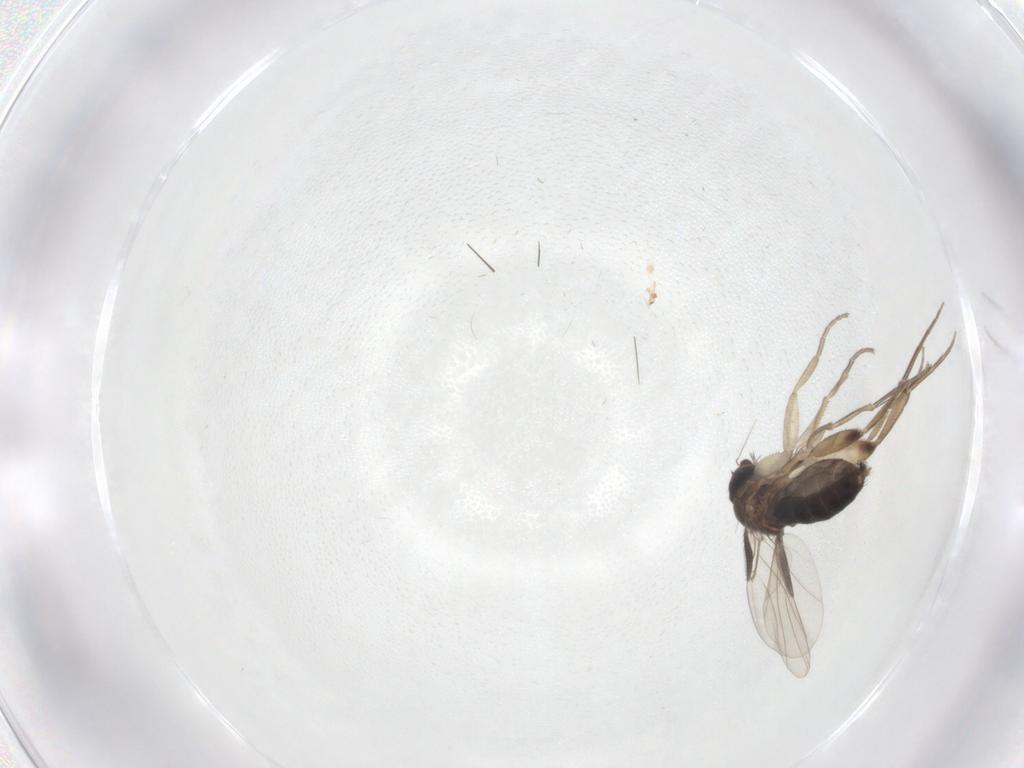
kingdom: Animalia
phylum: Arthropoda
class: Insecta
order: Diptera
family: Phoridae
